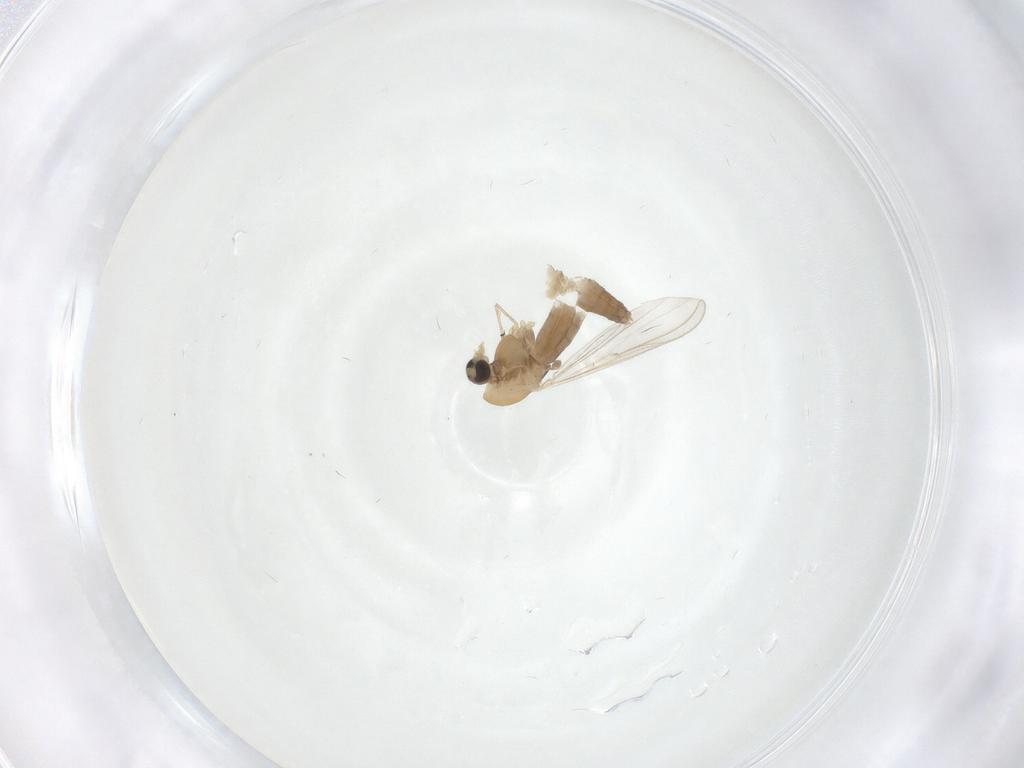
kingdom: Animalia
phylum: Arthropoda
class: Insecta
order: Diptera
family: Chironomidae
